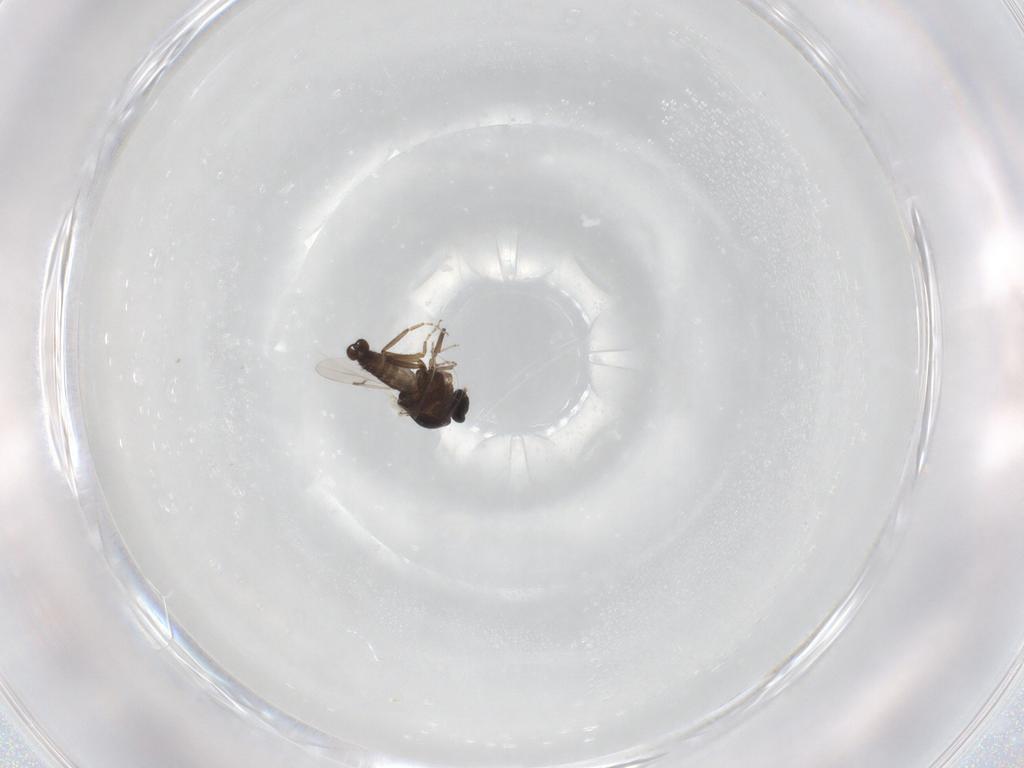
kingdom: Animalia
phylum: Arthropoda
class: Insecta
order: Diptera
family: Ceratopogonidae
